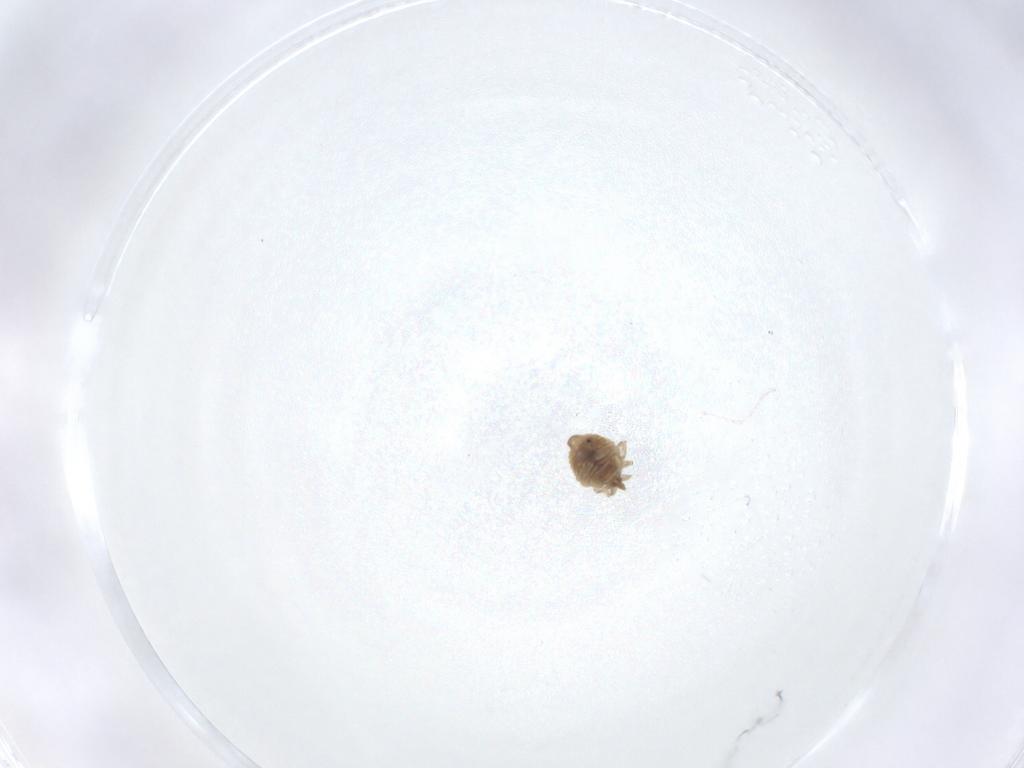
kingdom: Animalia
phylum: Arthropoda
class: Insecta
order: Neuroptera
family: Coniopterygidae
